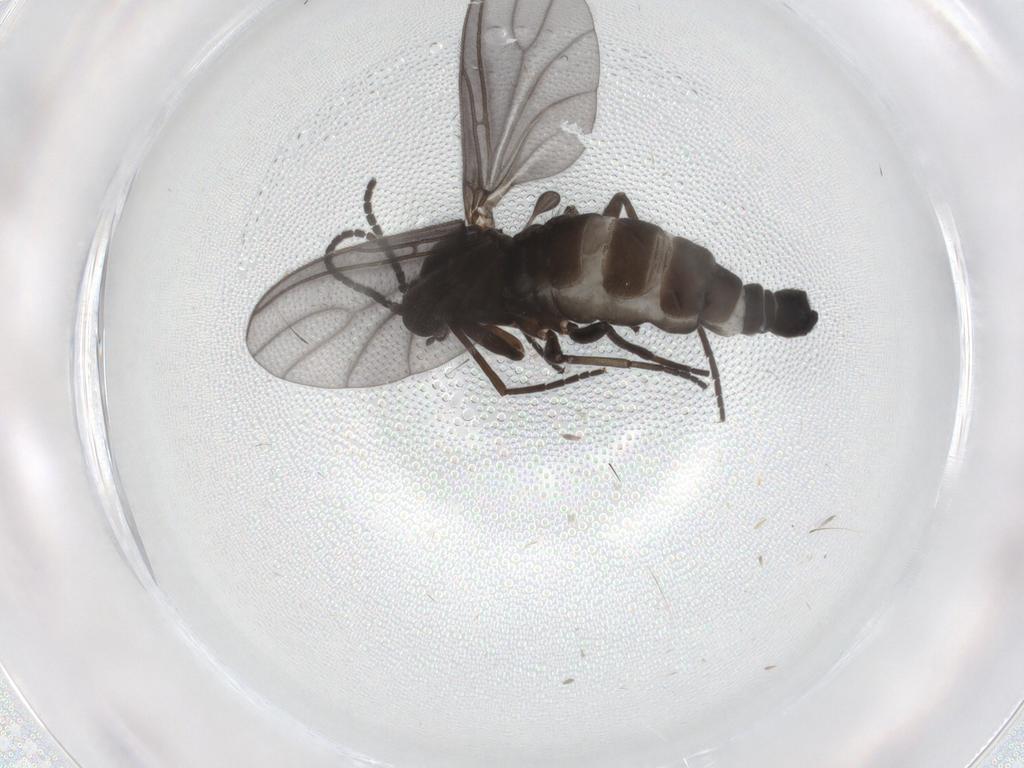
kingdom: Animalia
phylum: Arthropoda
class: Insecta
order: Diptera
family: Sciaridae
